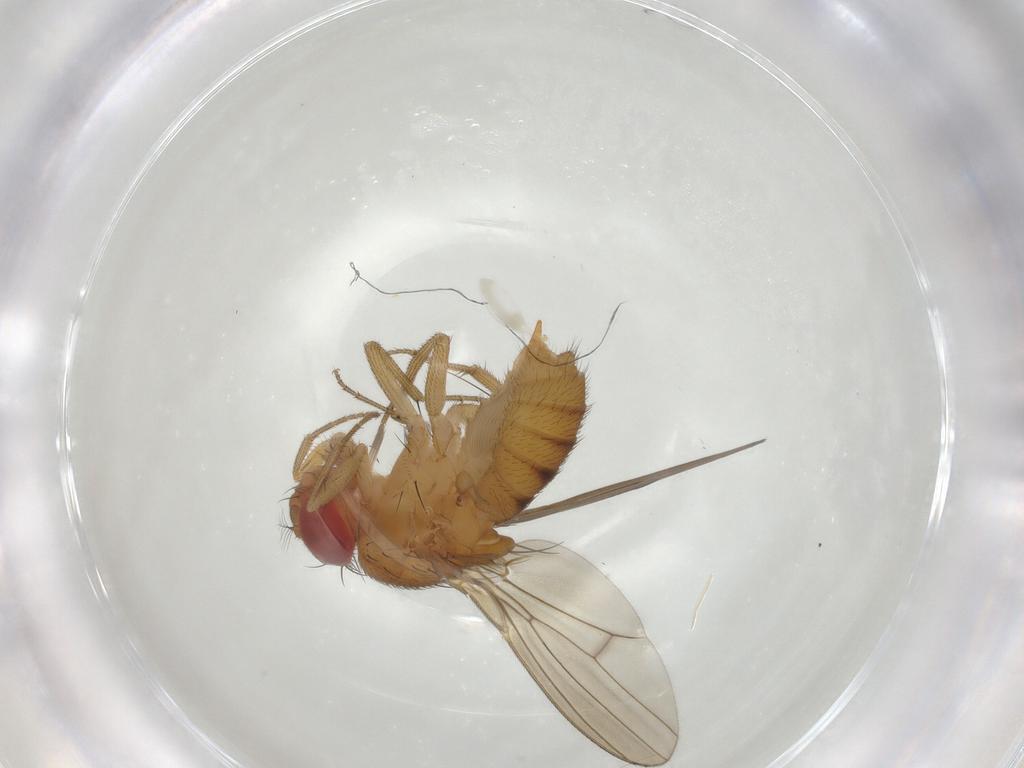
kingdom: Animalia
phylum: Arthropoda
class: Insecta
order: Diptera
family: Drosophilidae
